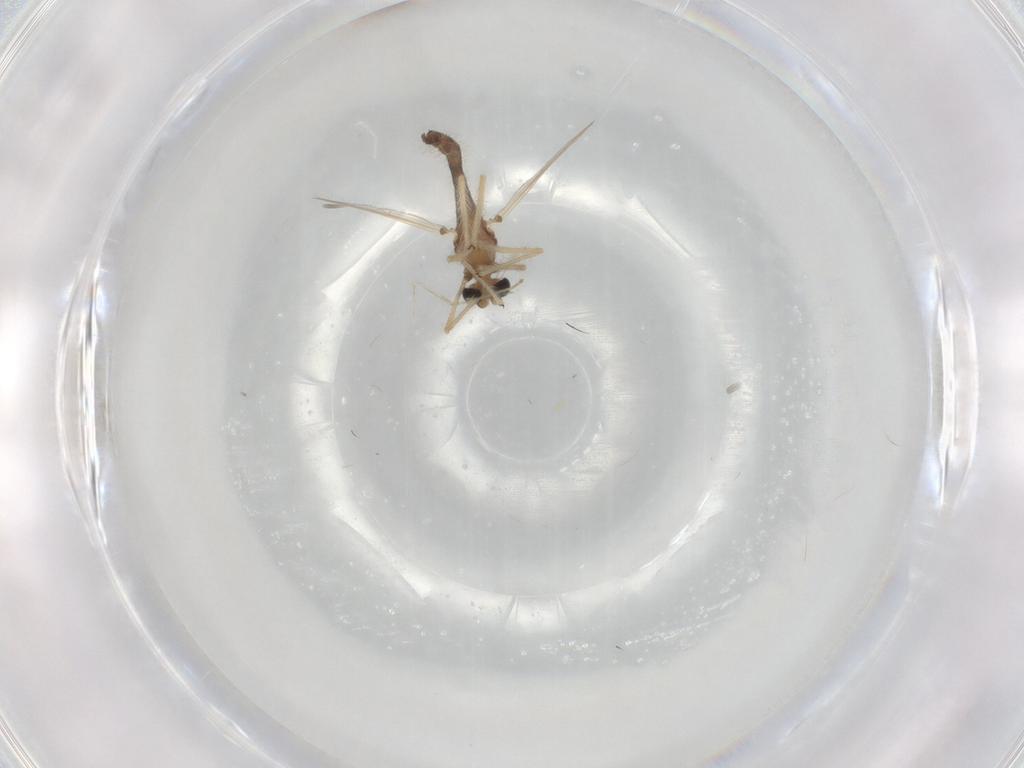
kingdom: Animalia
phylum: Arthropoda
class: Insecta
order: Diptera
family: Chironomidae
